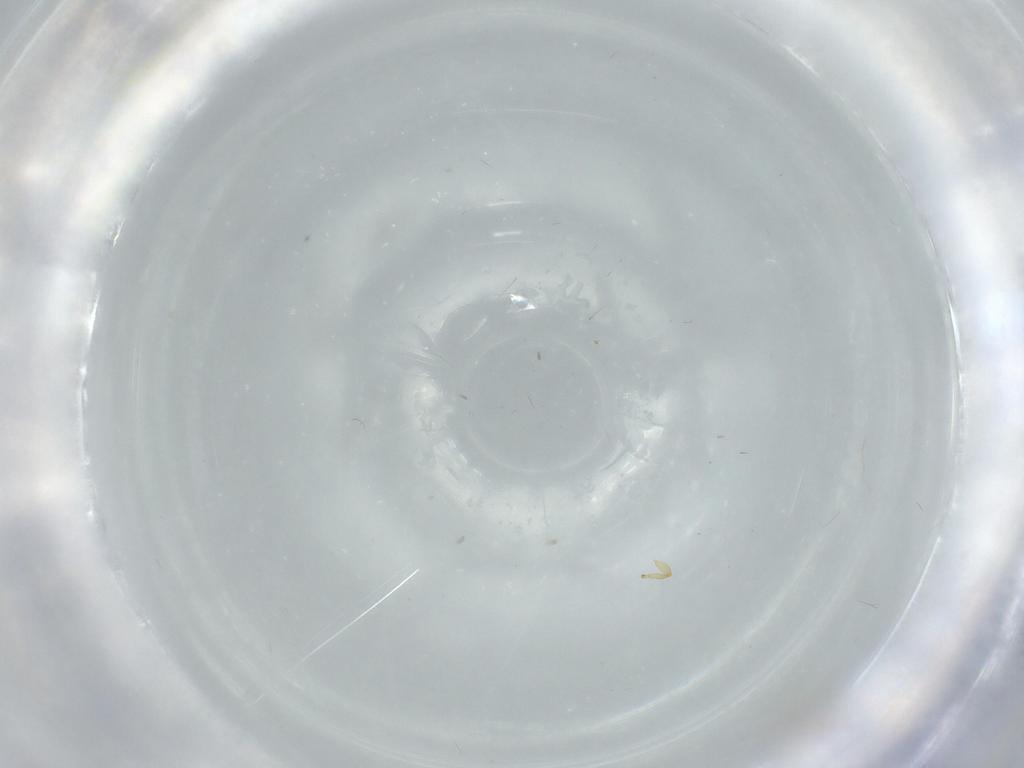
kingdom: Animalia
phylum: Arthropoda
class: Insecta
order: Thysanoptera
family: Phlaeothripidae
